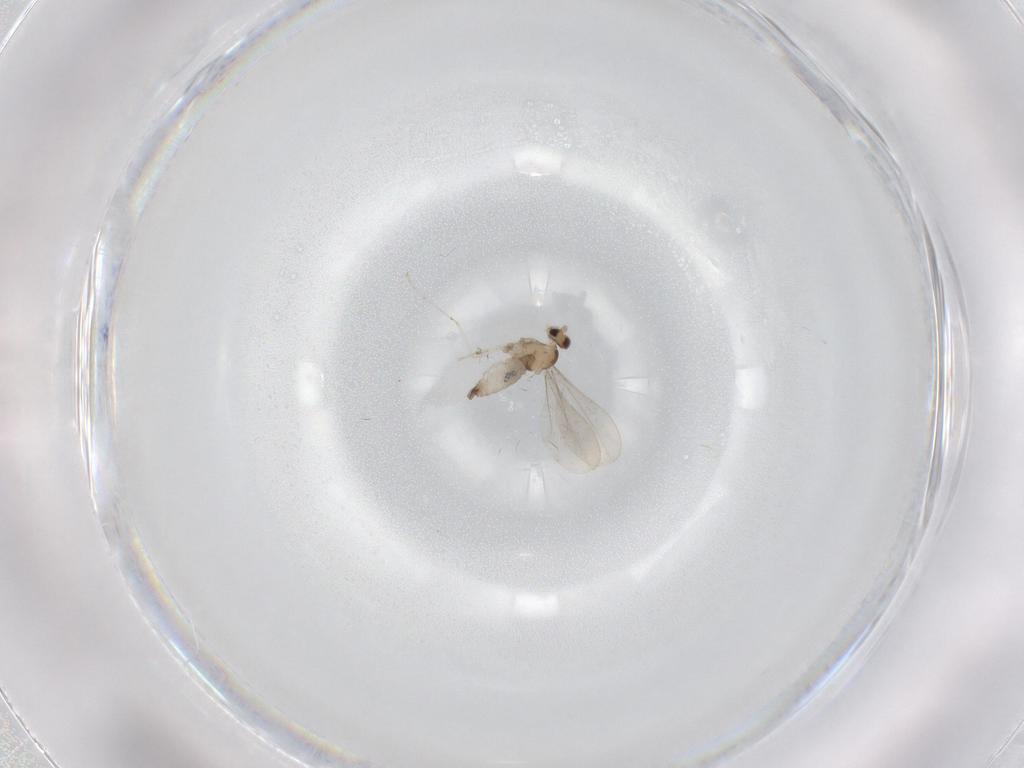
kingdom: Animalia
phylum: Arthropoda
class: Insecta
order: Diptera
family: Cecidomyiidae
